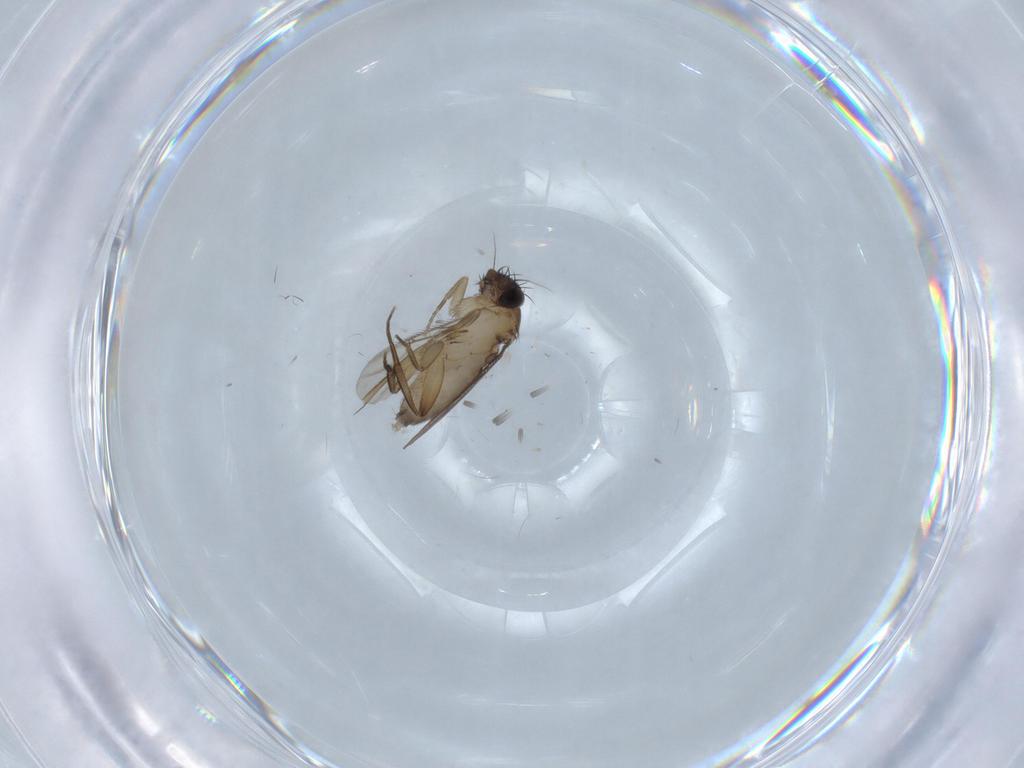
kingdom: Animalia
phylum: Arthropoda
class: Insecta
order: Diptera
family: Phoridae
